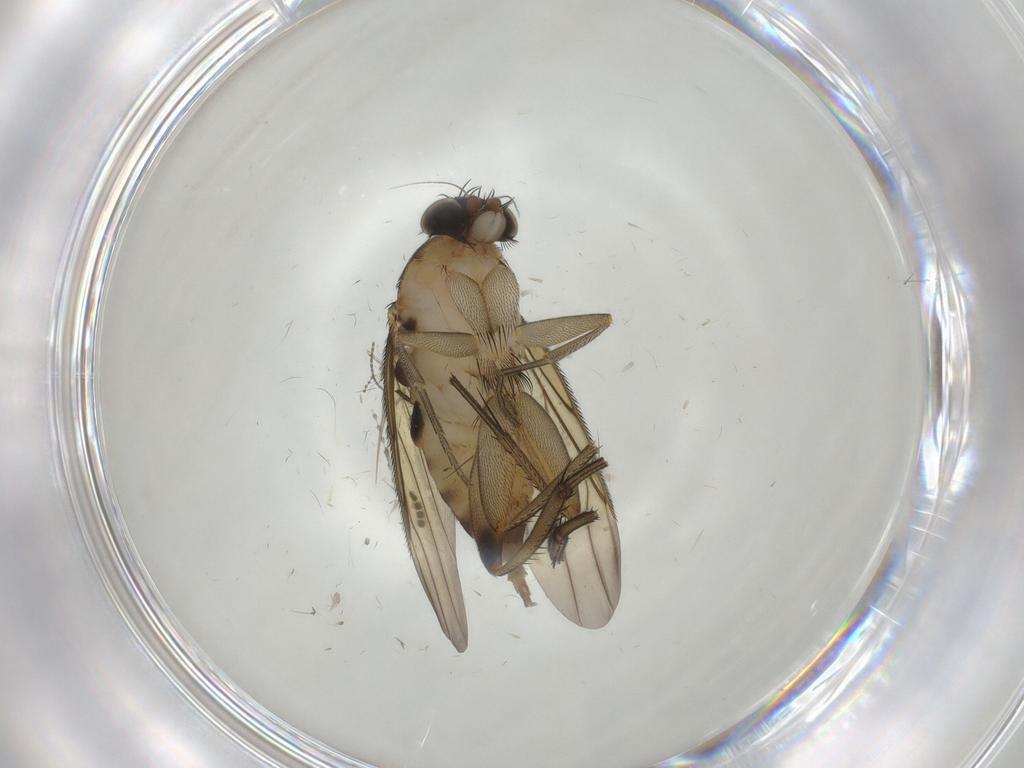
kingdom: Animalia
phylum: Arthropoda
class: Insecta
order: Diptera
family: Phoridae
